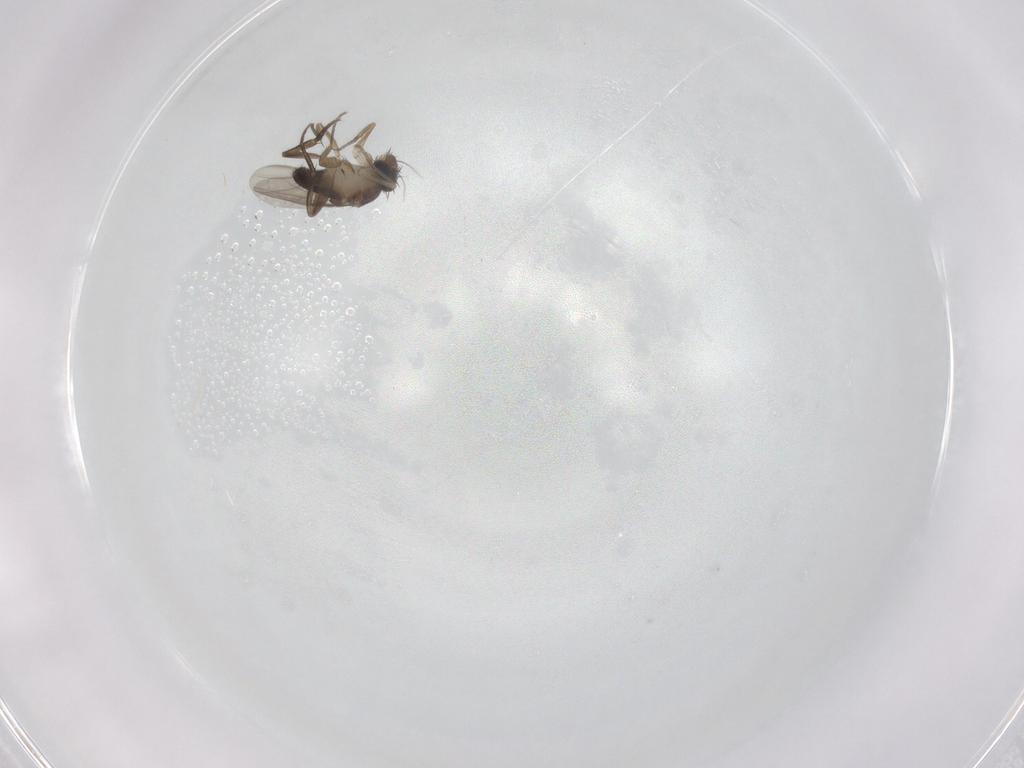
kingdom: Animalia
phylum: Arthropoda
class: Insecta
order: Diptera
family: Phoridae
